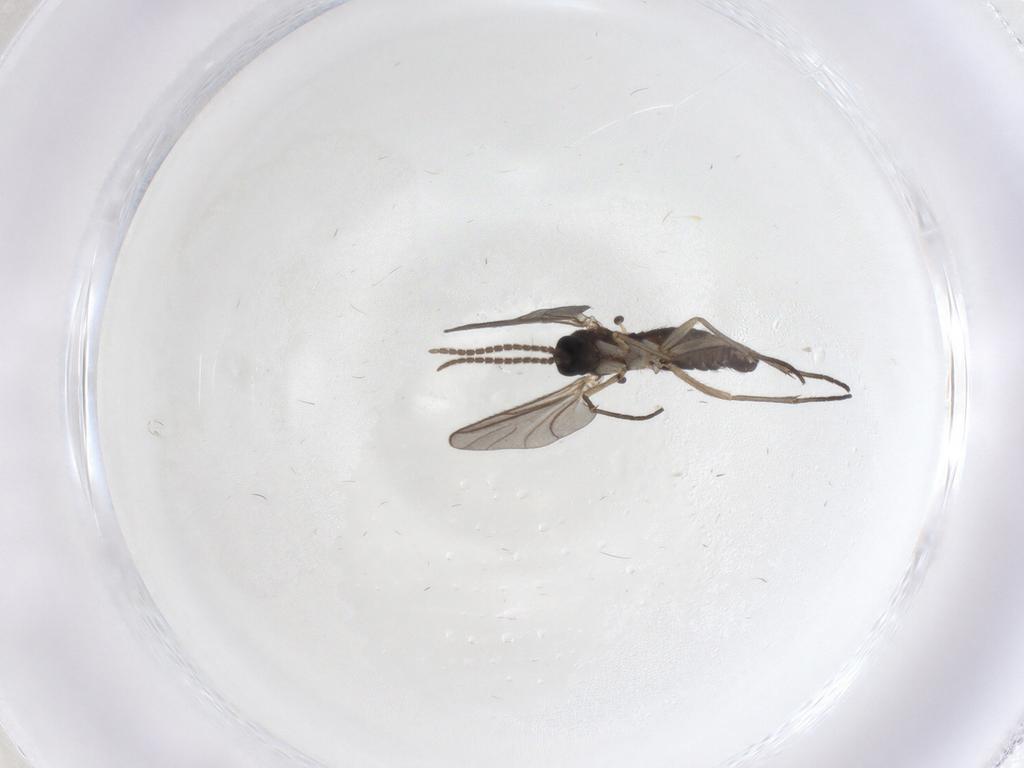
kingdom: Animalia
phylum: Arthropoda
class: Insecta
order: Diptera
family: Sciaridae
